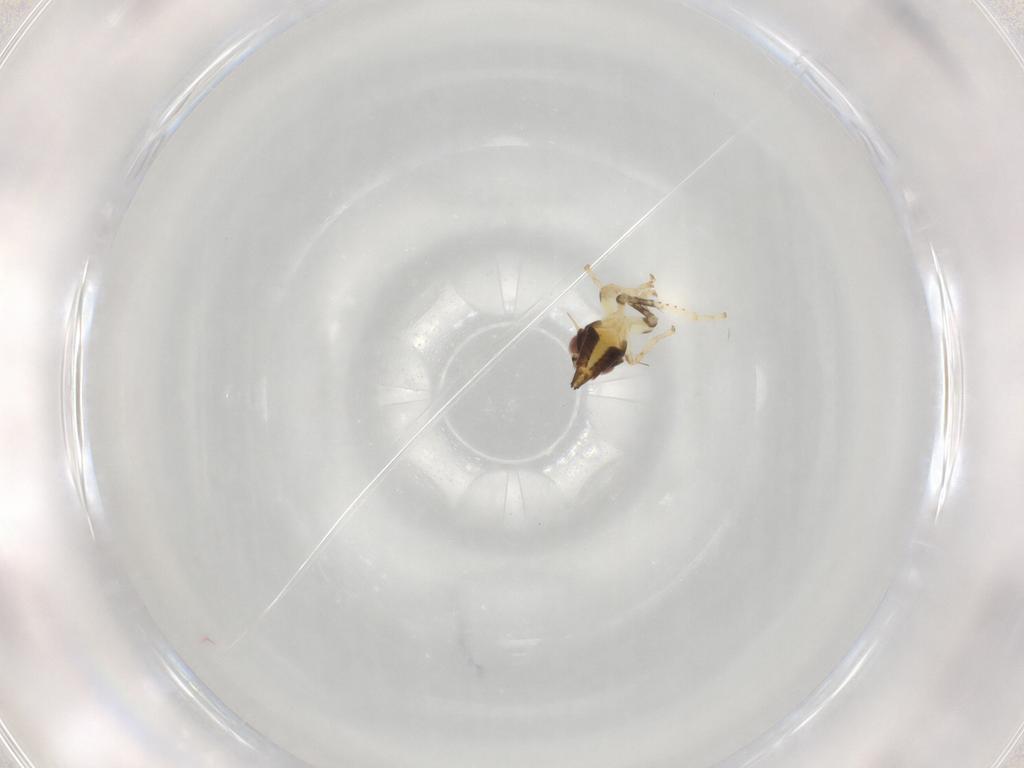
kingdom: Animalia
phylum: Arthropoda
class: Insecta
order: Hemiptera
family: Cicadellidae
